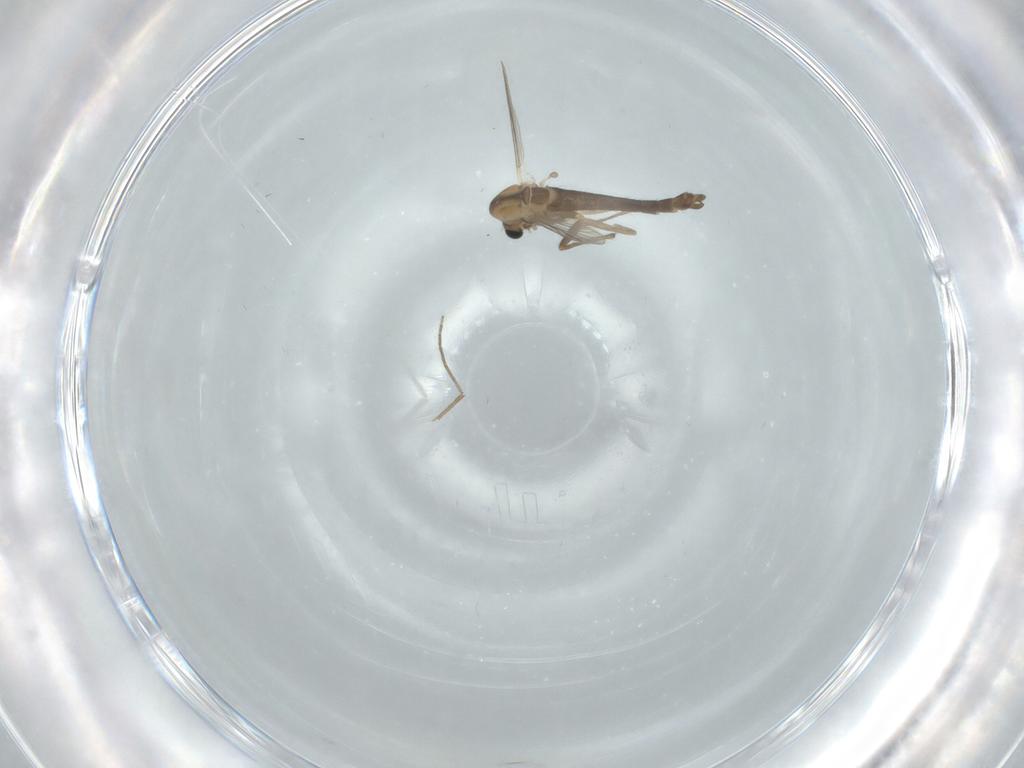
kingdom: Animalia
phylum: Arthropoda
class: Insecta
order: Diptera
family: Chironomidae
